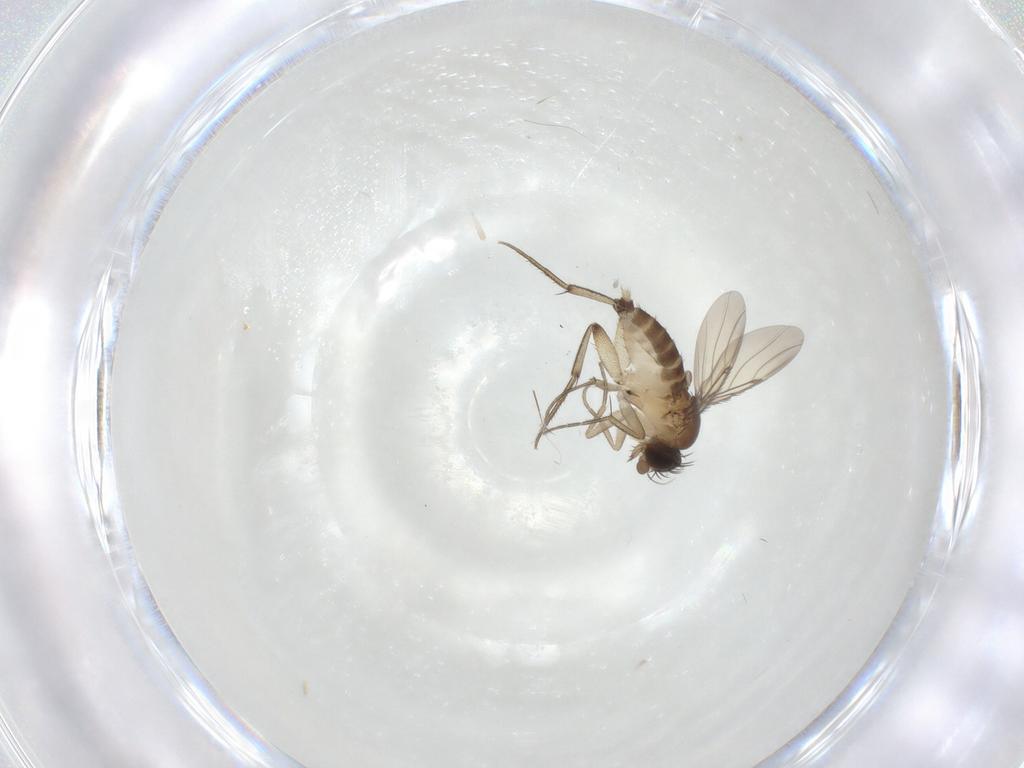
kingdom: Animalia
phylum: Arthropoda
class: Insecta
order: Diptera
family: Phoridae
